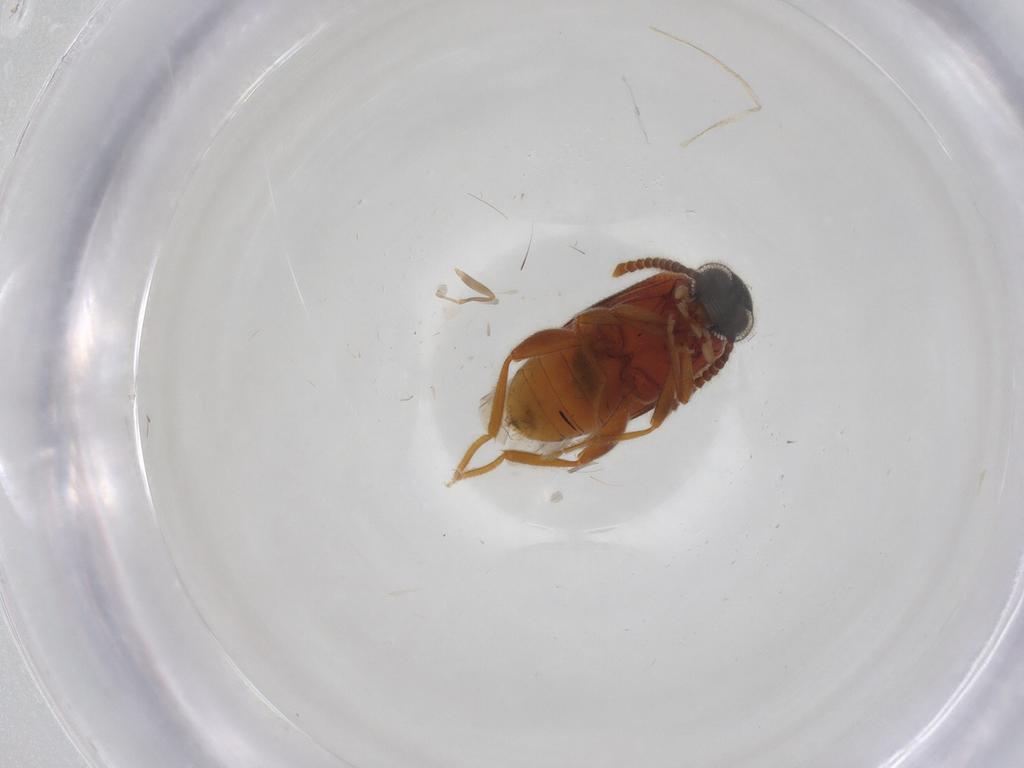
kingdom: Animalia
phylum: Arthropoda
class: Insecta
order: Coleoptera
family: Aderidae
